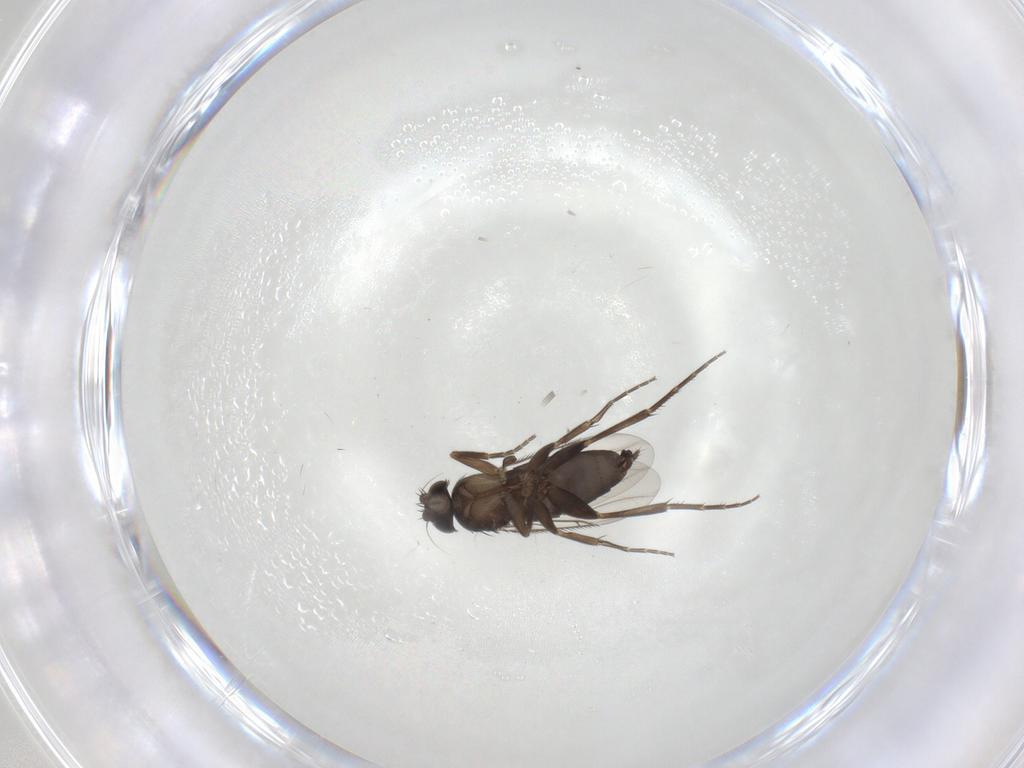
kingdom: Animalia
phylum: Arthropoda
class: Insecta
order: Diptera
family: Phoridae
